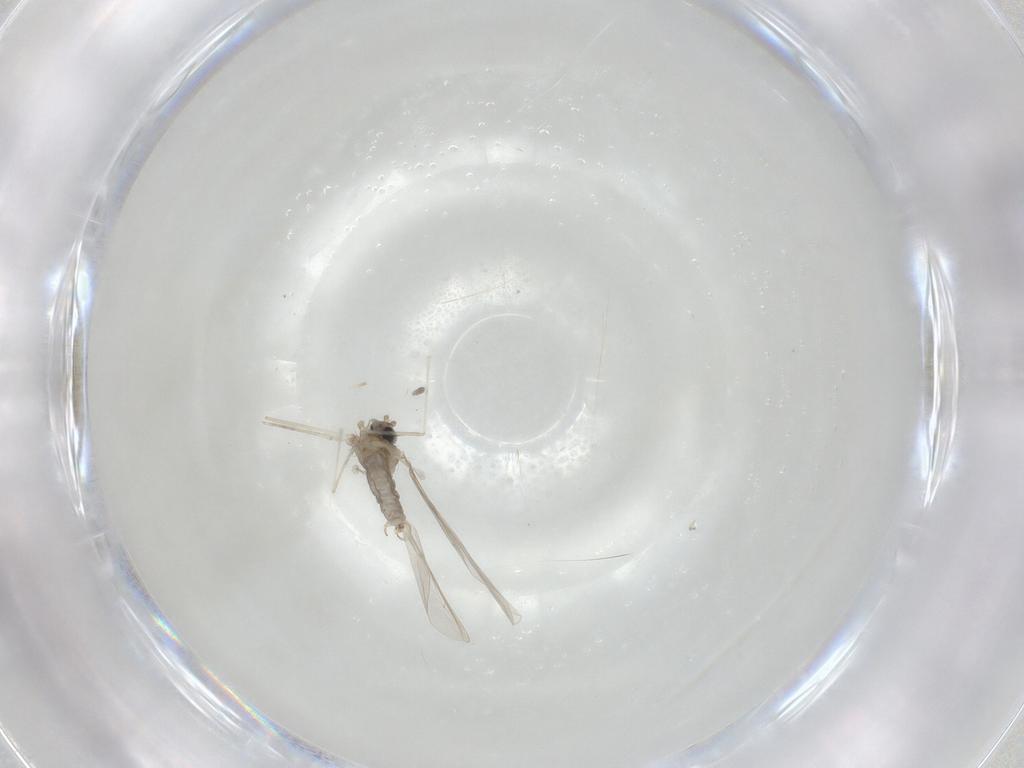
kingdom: Animalia
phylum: Arthropoda
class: Insecta
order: Diptera
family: Cecidomyiidae
